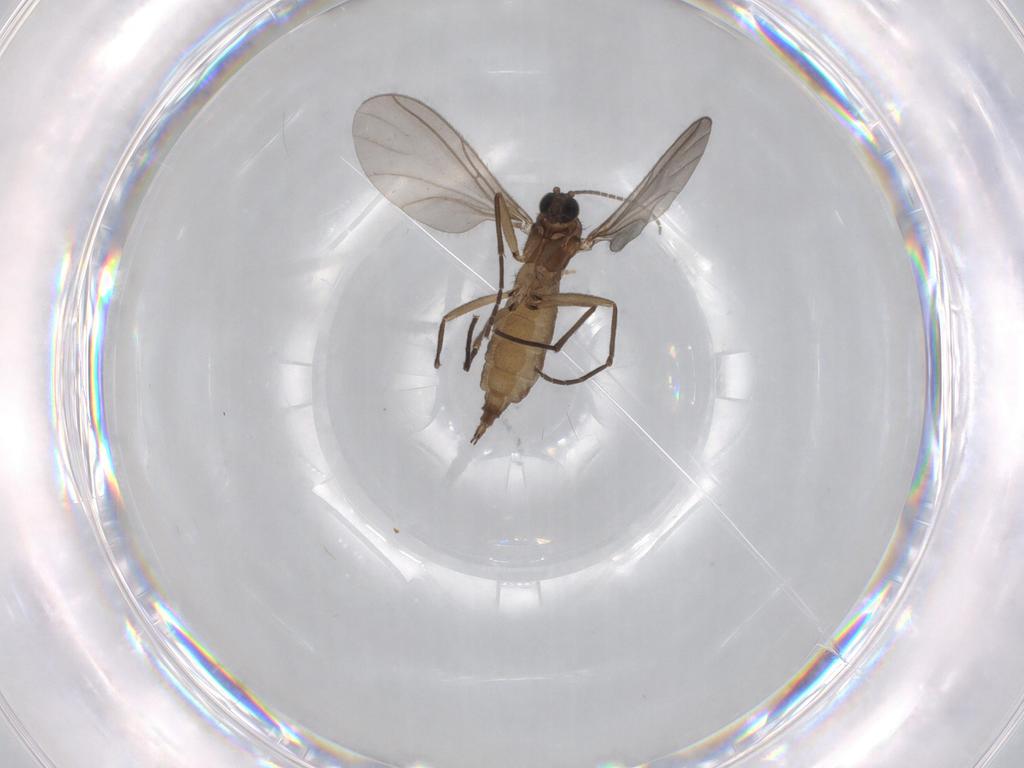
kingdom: Animalia
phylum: Arthropoda
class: Insecta
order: Diptera
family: Sciaridae
